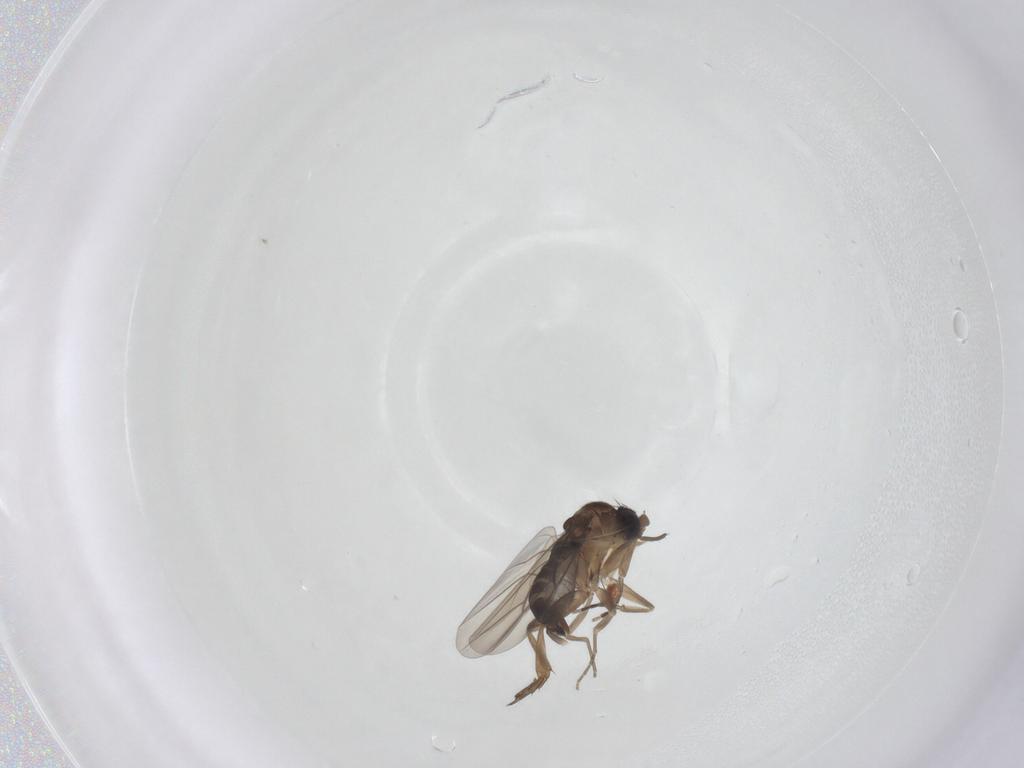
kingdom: Animalia
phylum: Arthropoda
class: Insecta
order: Diptera
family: Phoridae
